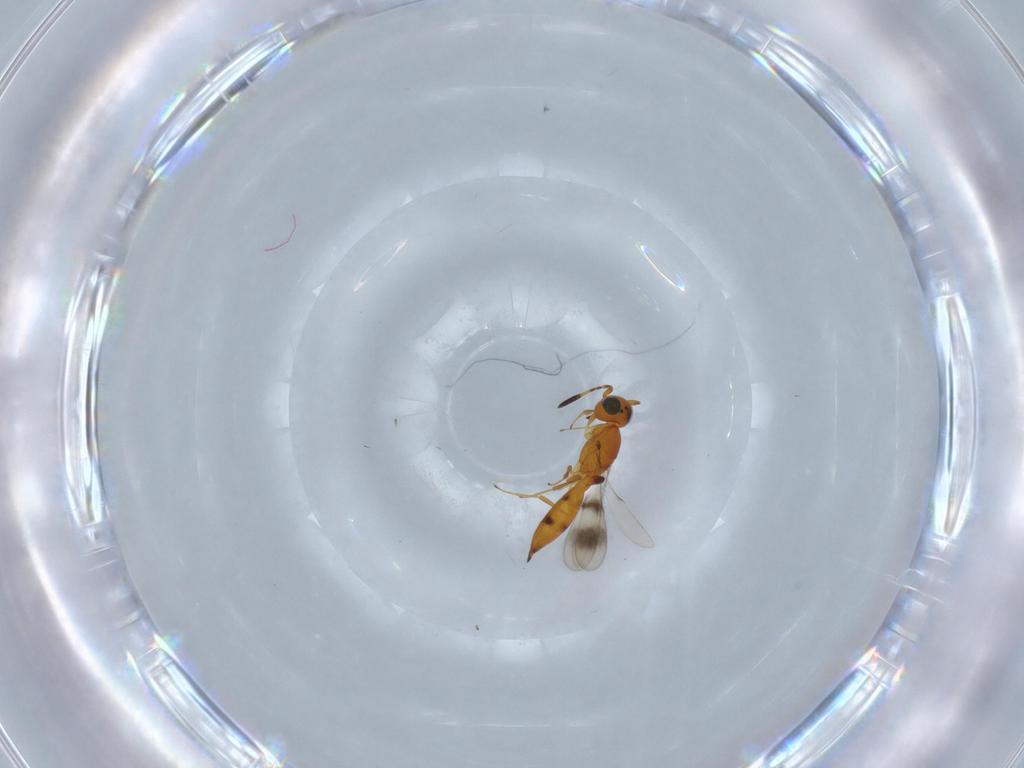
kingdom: Animalia
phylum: Arthropoda
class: Insecta
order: Hymenoptera
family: Scelionidae
